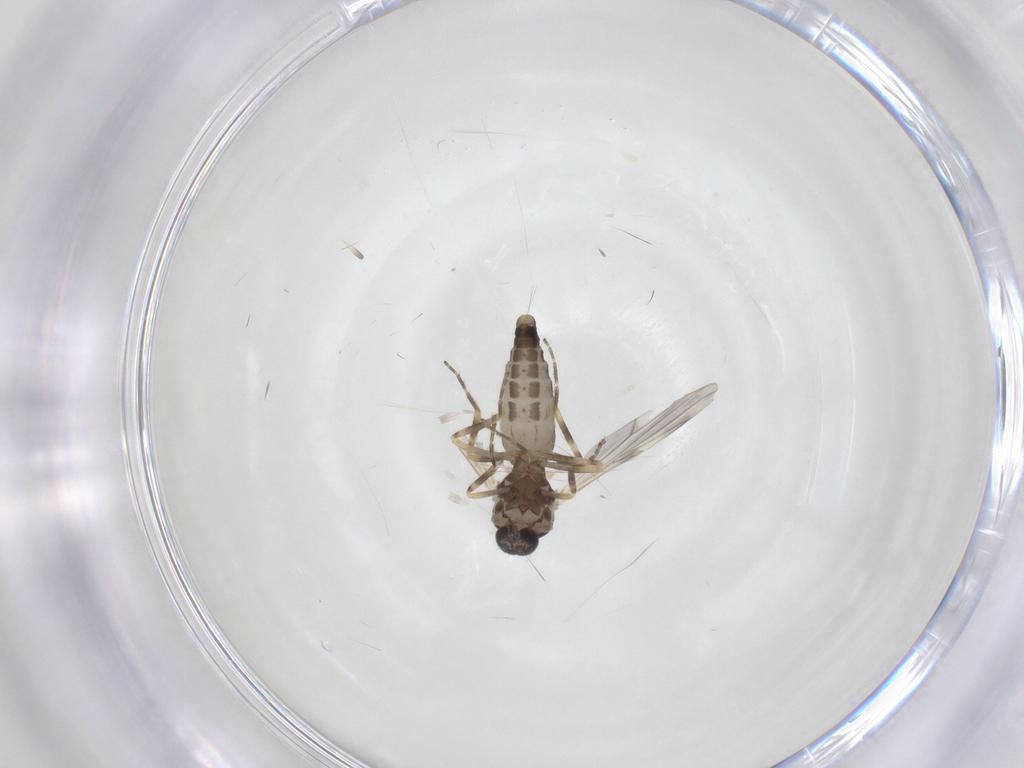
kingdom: Animalia
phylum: Arthropoda
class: Insecta
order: Diptera
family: Ceratopogonidae
